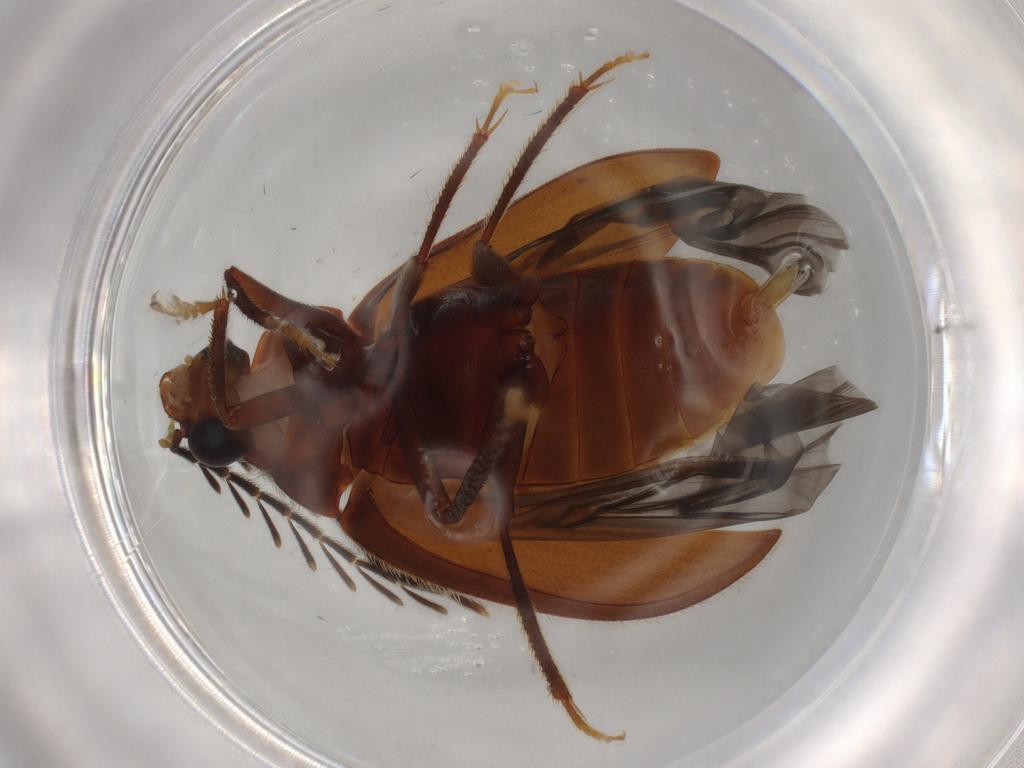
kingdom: Animalia
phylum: Arthropoda
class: Insecta
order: Coleoptera
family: Ptilodactylidae
